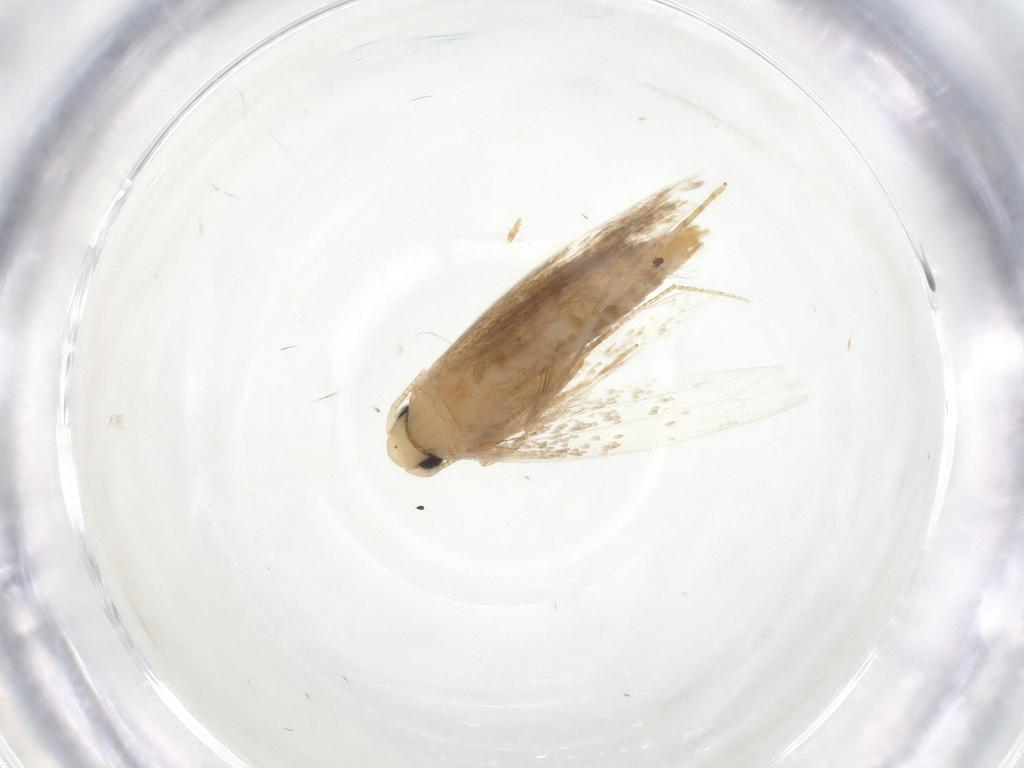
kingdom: Animalia
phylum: Arthropoda
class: Insecta
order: Lepidoptera
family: Tineidae
